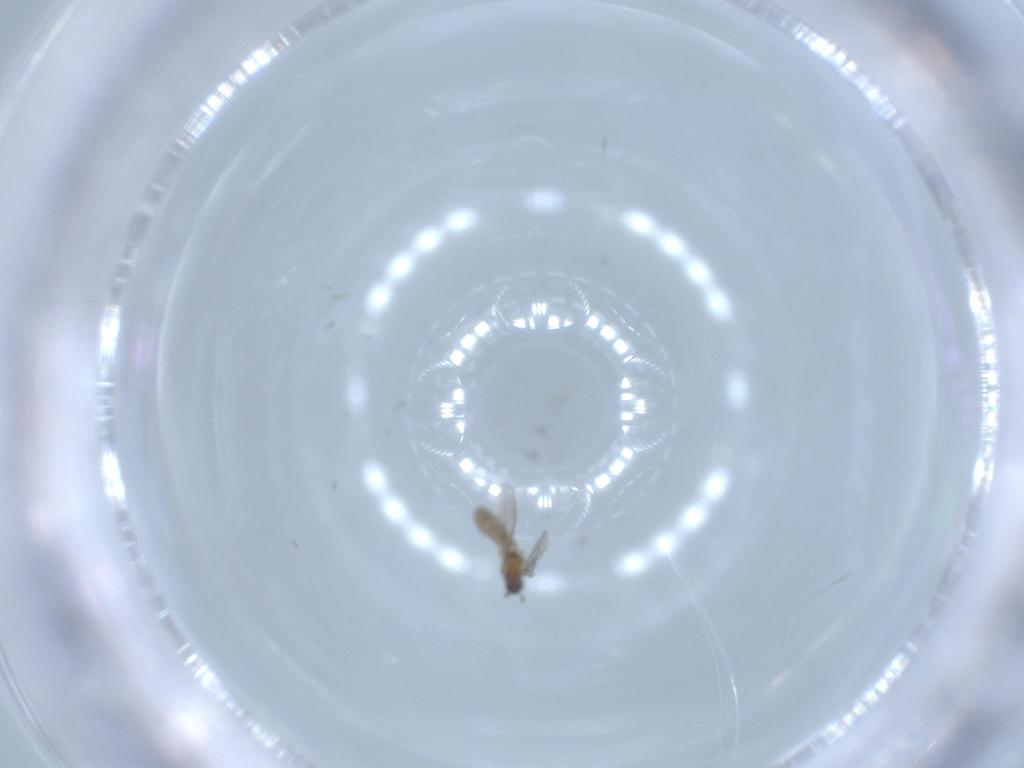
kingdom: Animalia
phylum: Arthropoda
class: Insecta
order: Diptera
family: Cecidomyiidae
